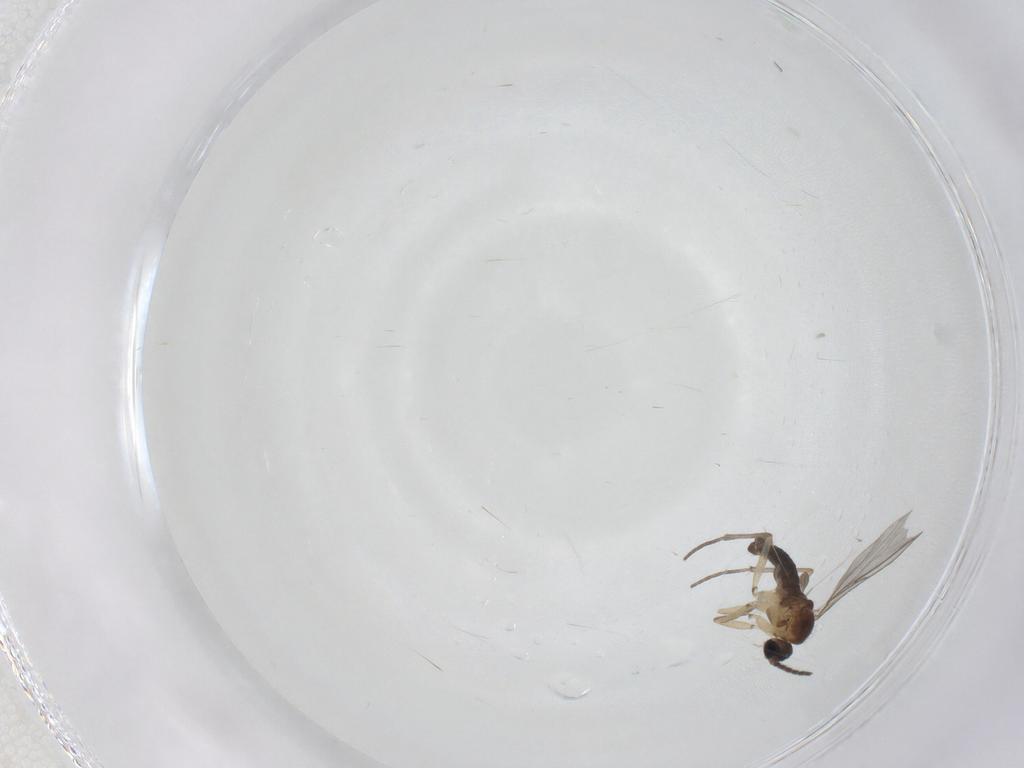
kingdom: Animalia
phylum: Arthropoda
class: Insecta
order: Diptera
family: Sciaridae
